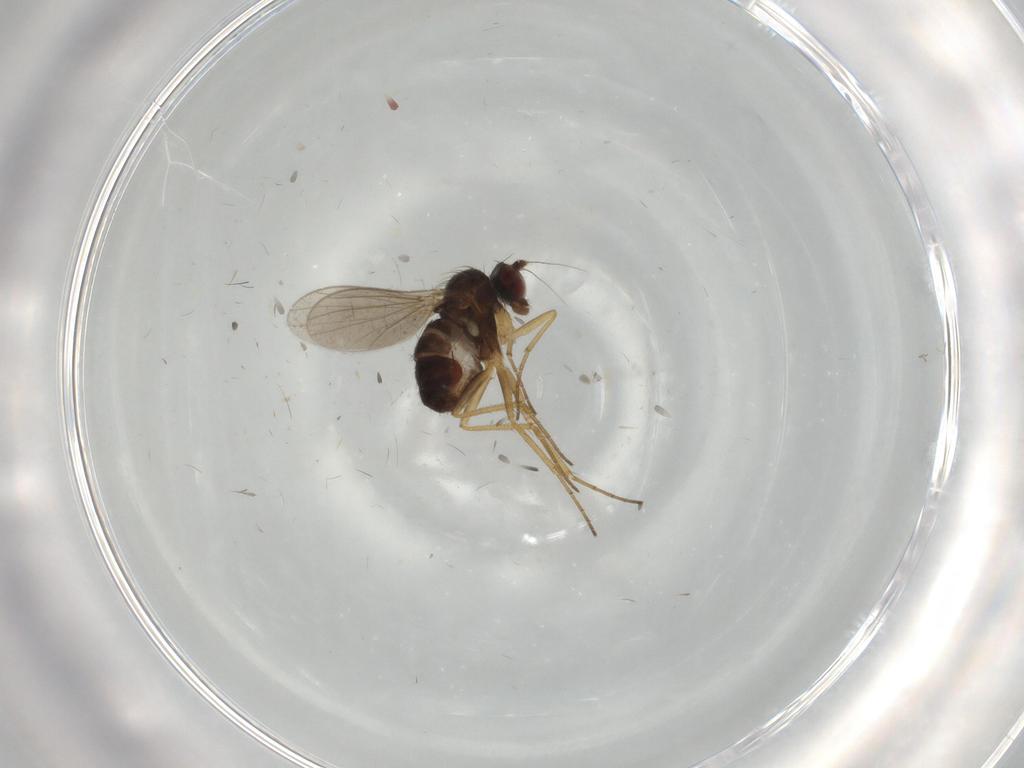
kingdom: Animalia
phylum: Arthropoda
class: Insecta
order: Diptera
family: Dolichopodidae
